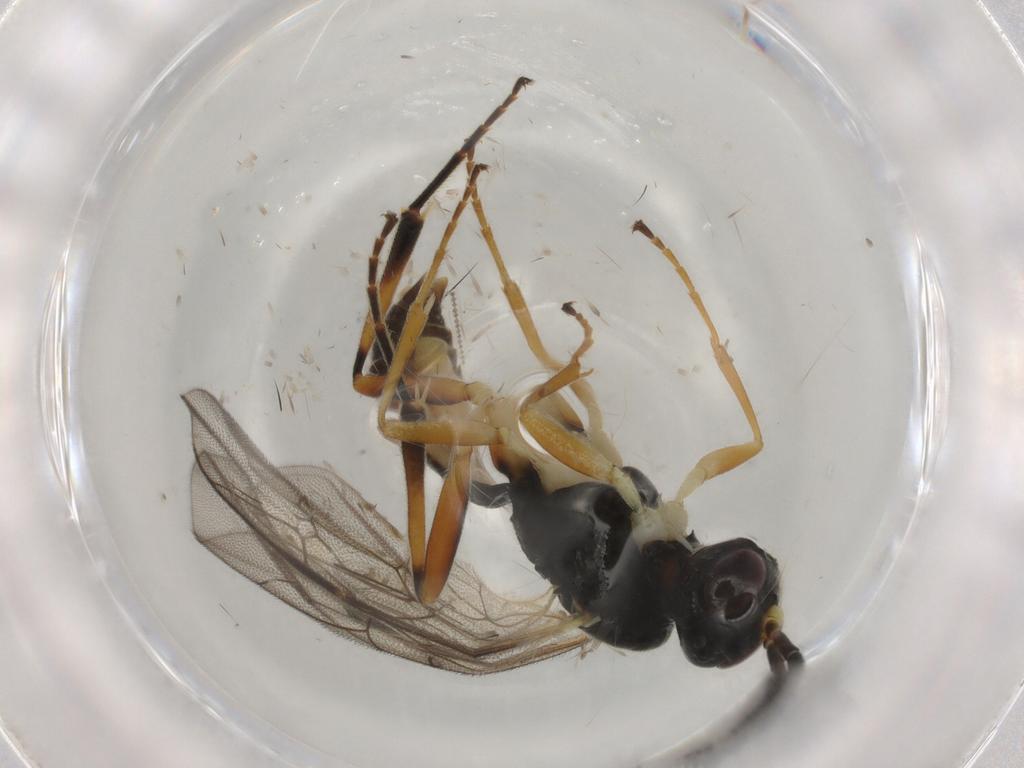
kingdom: Animalia
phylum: Arthropoda
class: Insecta
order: Hymenoptera
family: Ichneumonidae
